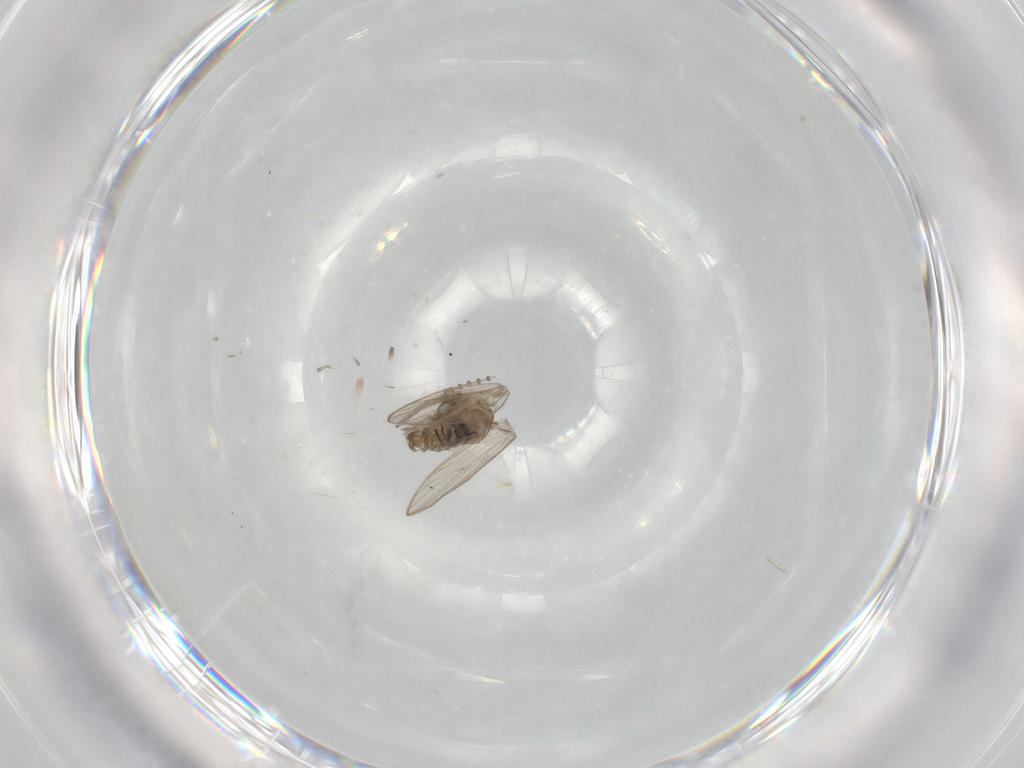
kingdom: Animalia
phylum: Arthropoda
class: Insecta
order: Diptera
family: Psychodidae
